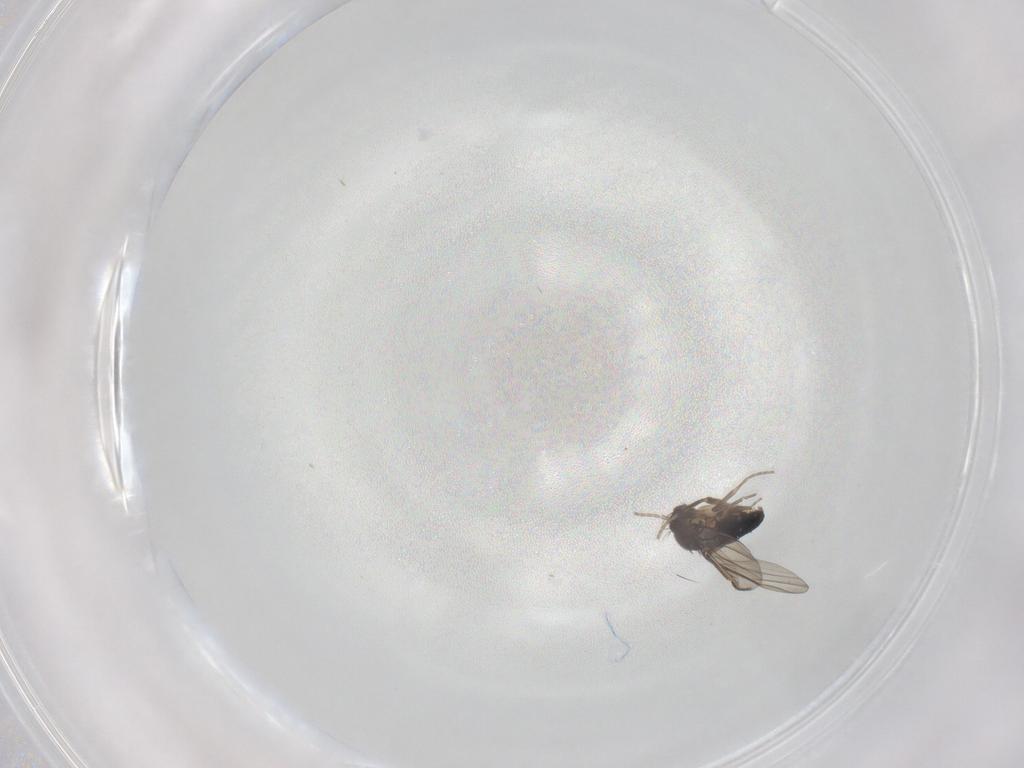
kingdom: Animalia
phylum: Arthropoda
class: Insecta
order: Diptera
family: Phoridae
